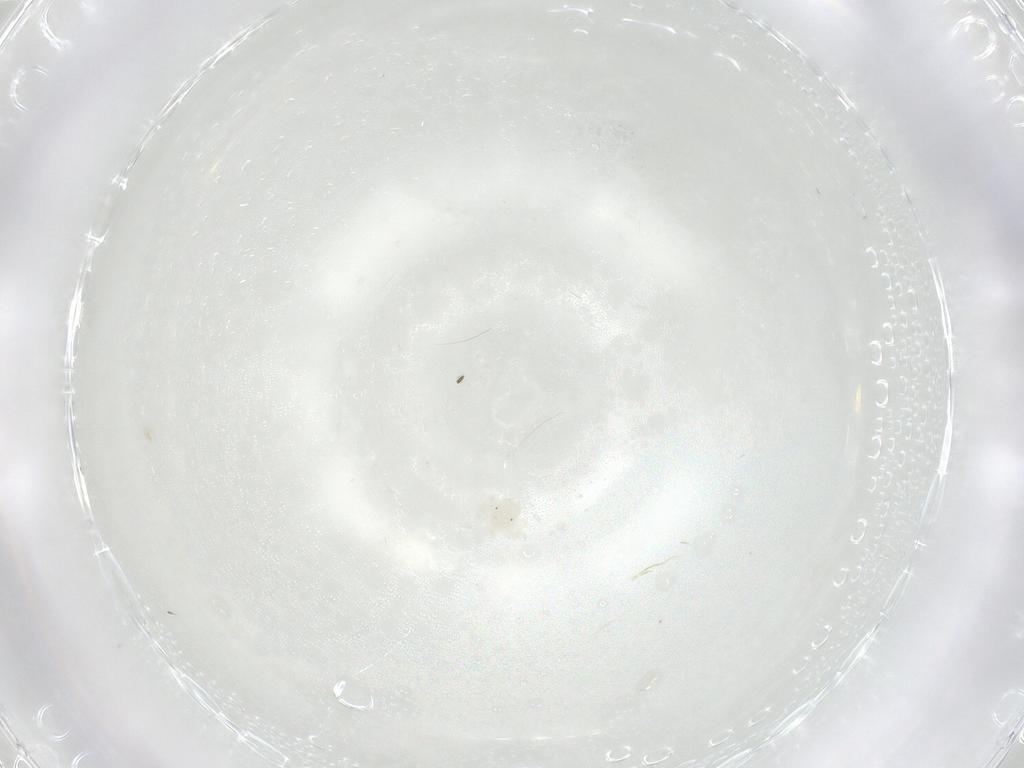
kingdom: Animalia
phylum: Arthropoda
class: Arachnida
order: Trombidiformes
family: Anystidae
